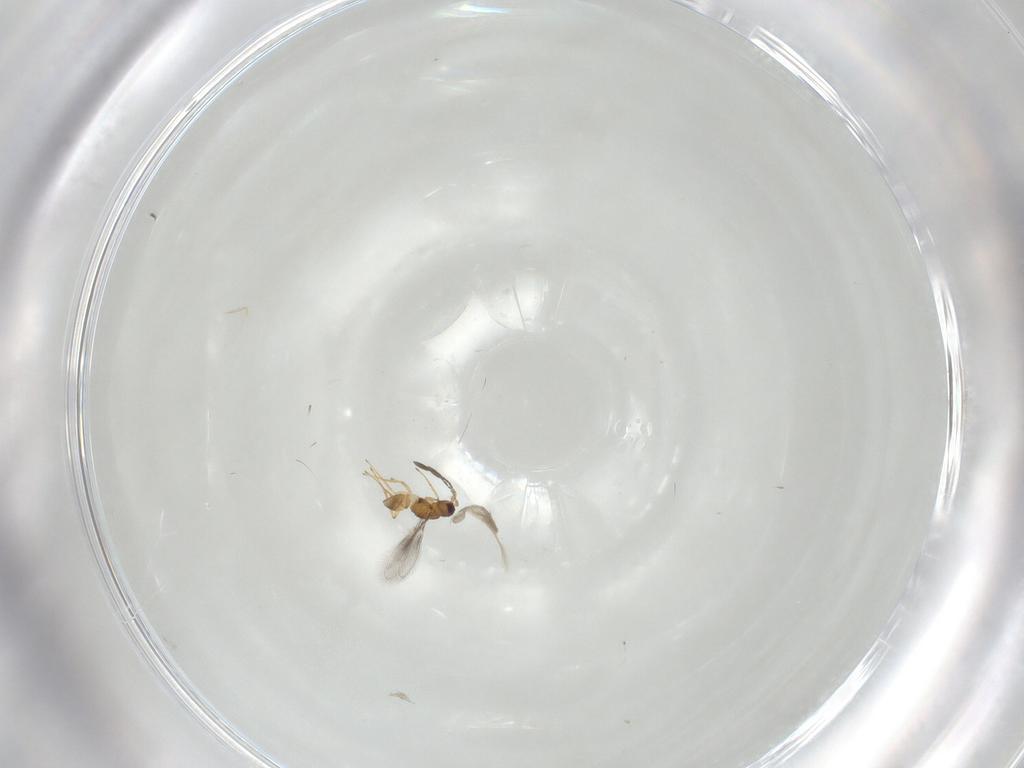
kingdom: Animalia
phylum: Arthropoda
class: Insecta
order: Hymenoptera
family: Mymaridae
